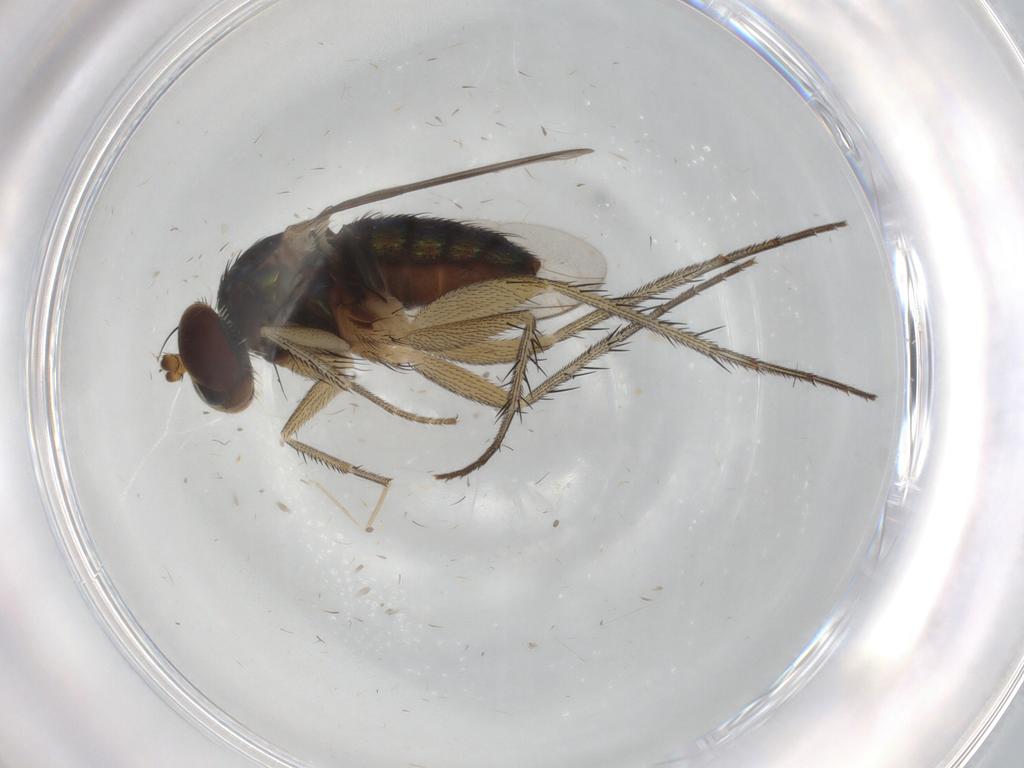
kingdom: Animalia
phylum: Arthropoda
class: Insecta
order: Diptera
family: Dolichopodidae
